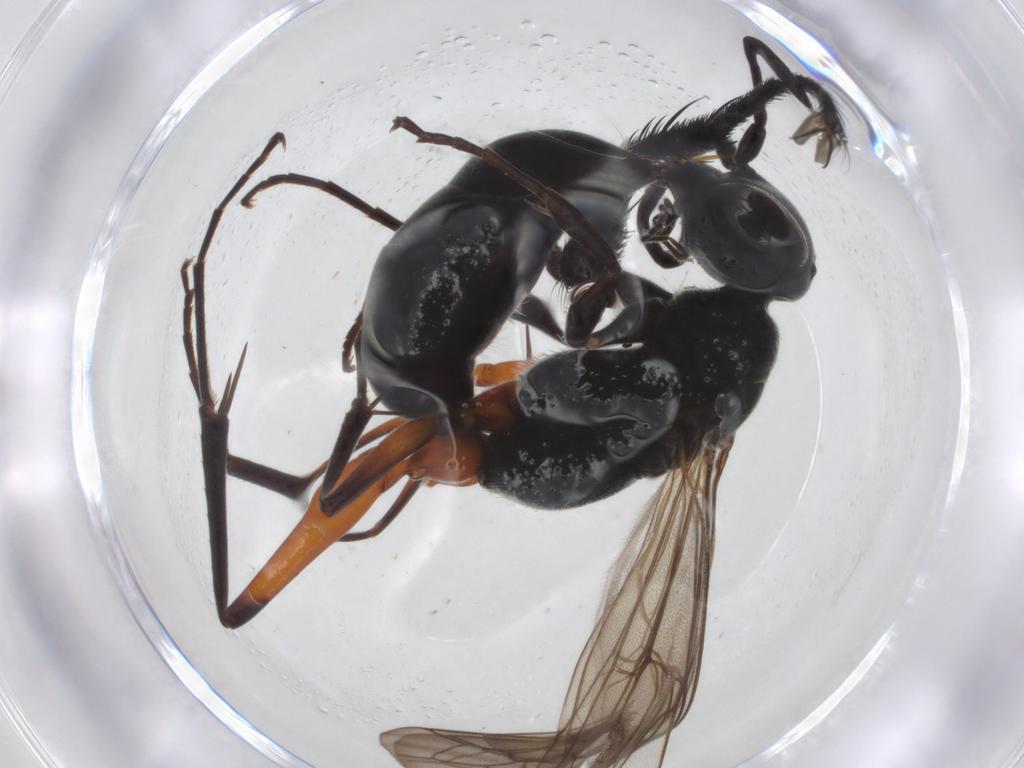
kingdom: Animalia
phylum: Arthropoda
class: Insecta
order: Hymenoptera
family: Pompilidae
